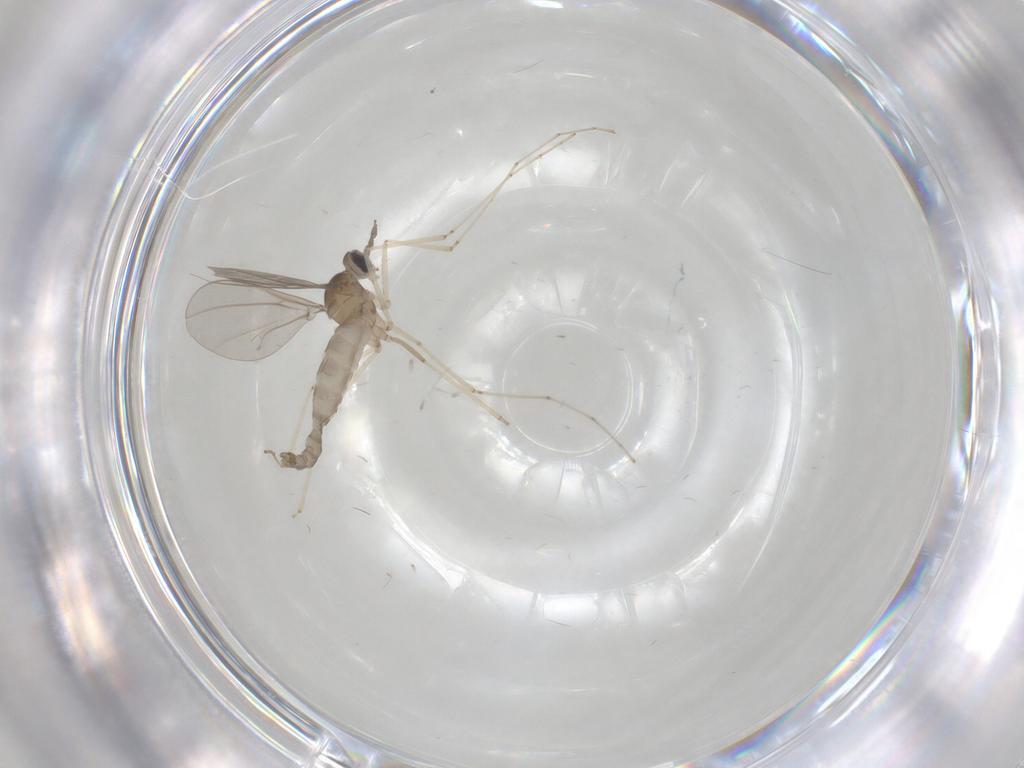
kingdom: Animalia
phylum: Arthropoda
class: Insecta
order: Diptera
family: Cecidomyiidae
